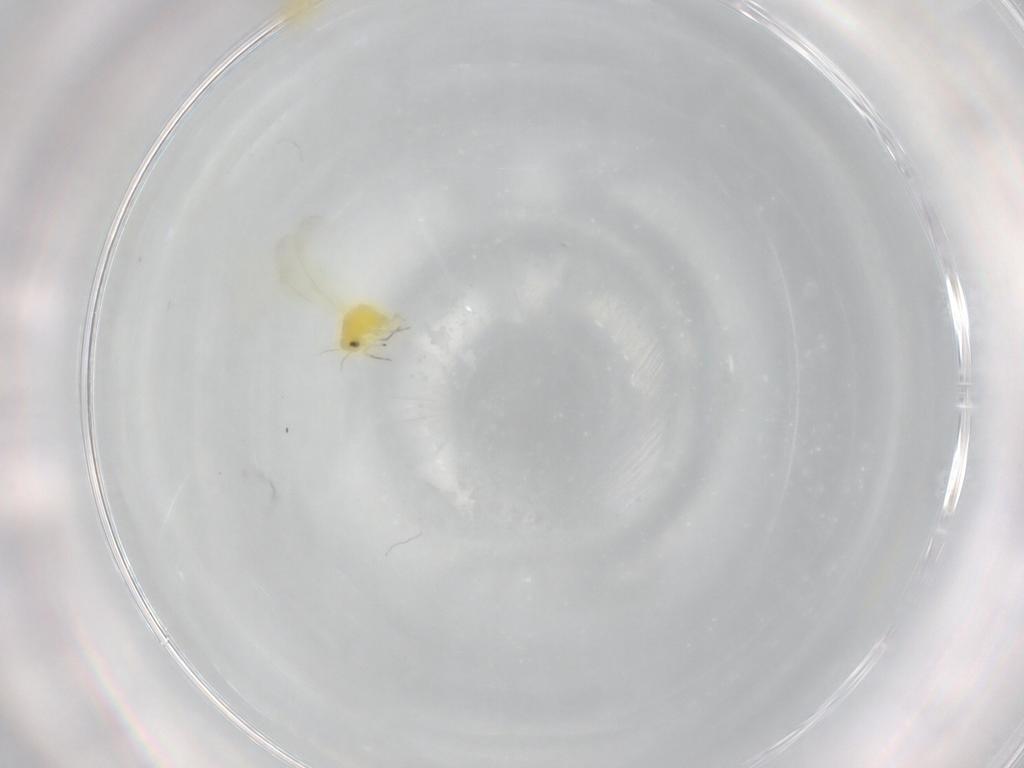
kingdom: Animalia
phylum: Arthropoda
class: Insecta
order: Hemiptera
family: Aleyrodidae
